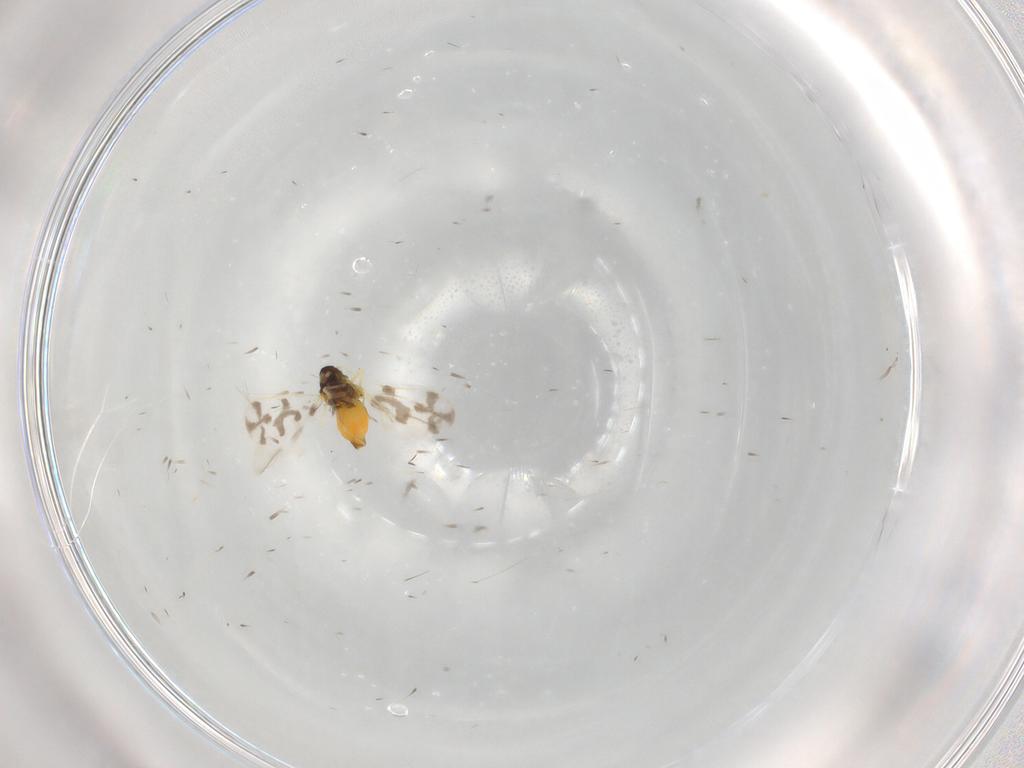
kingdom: Animalia
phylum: Arthropoda
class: Insecta
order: Hemiptera
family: Aleyrodidae
